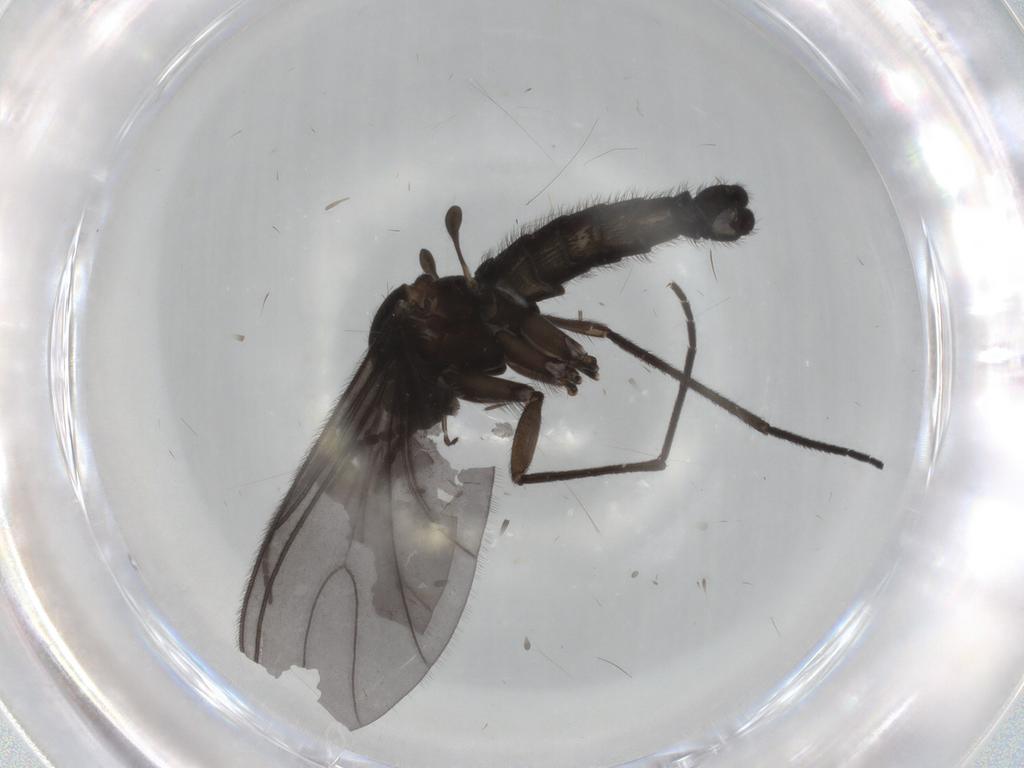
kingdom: Animalia
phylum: Arthropoda
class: Insecta
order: Diptera
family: Sciaridae
